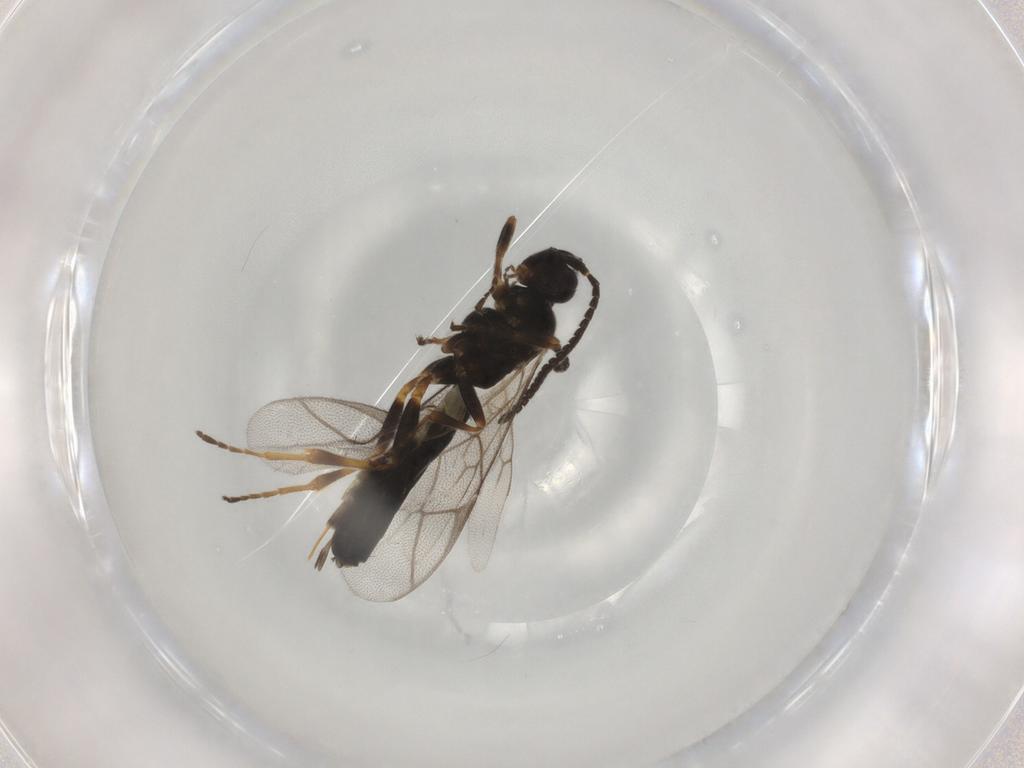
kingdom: Animalia
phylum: Arthropoda
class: Insecta
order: Hymenoptera
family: Ichneumonidae
